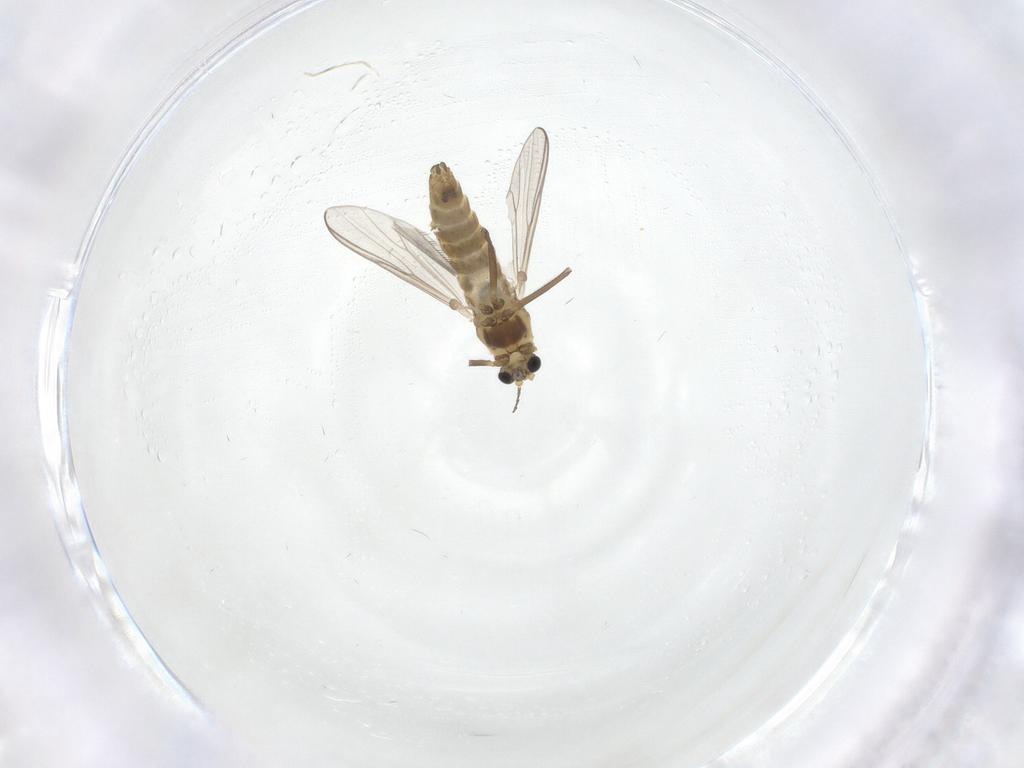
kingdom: Animalia
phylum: Arthropoda
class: Insecta
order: Diptera
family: Chironomidae
